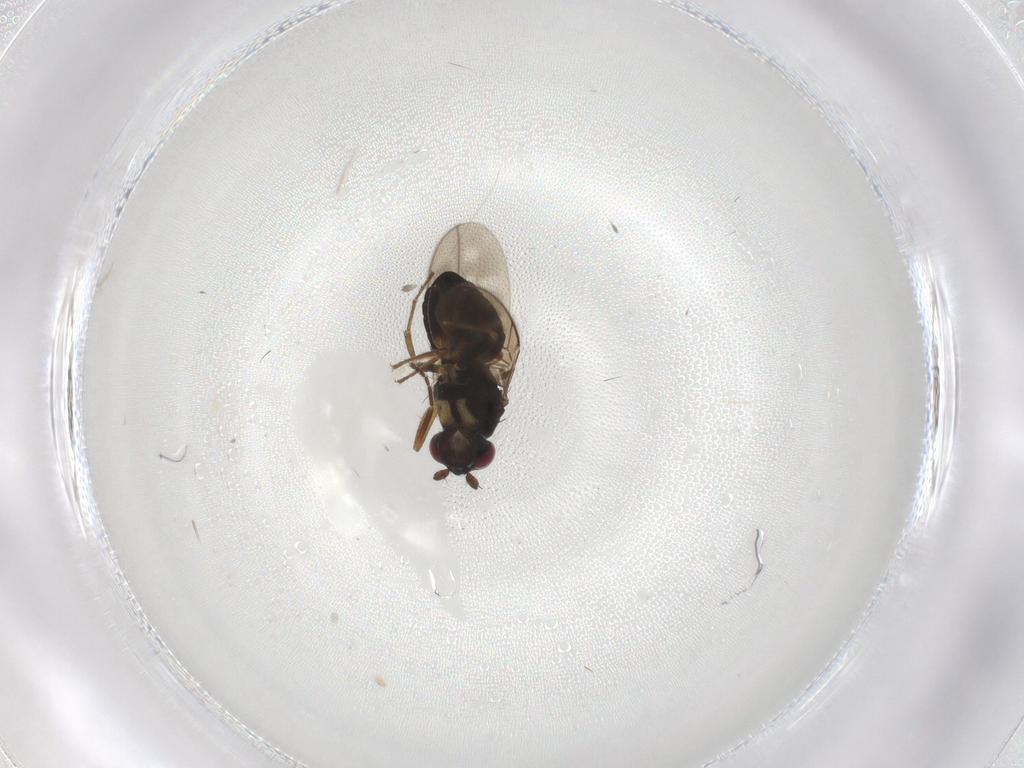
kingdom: Animalia
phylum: Arthropoda
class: Insecta
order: Diptera
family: Sphaeroceridae
